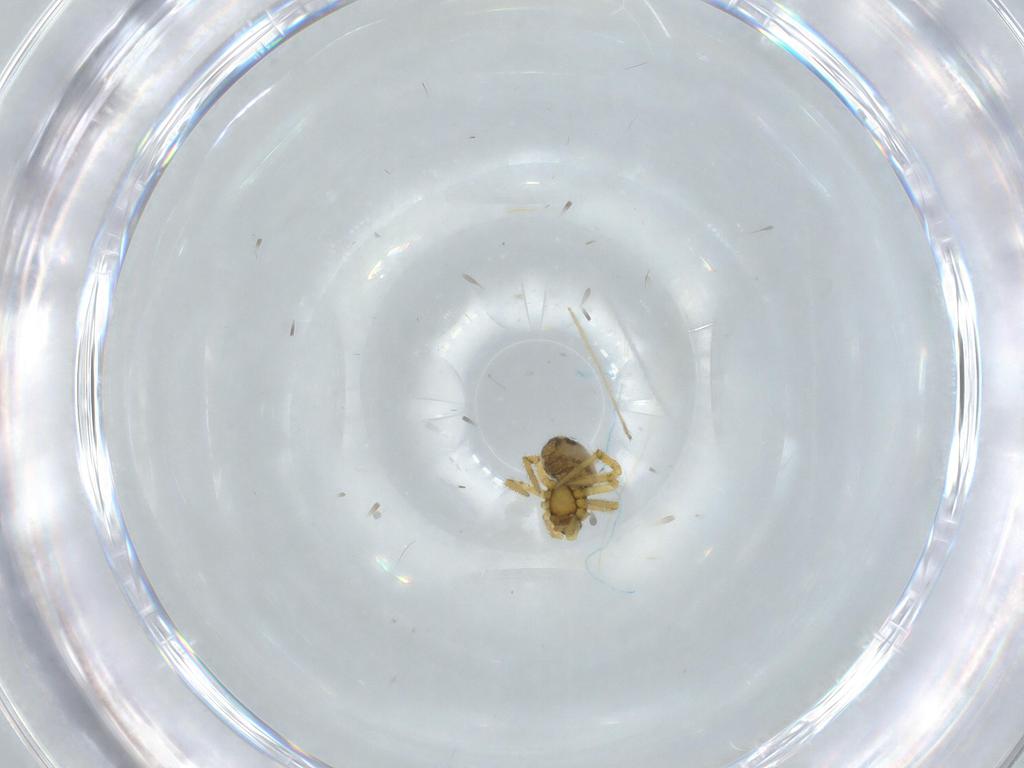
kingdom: Animalia
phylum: Arthropoda
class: Arachnida
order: Araneae
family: Theridiidae
